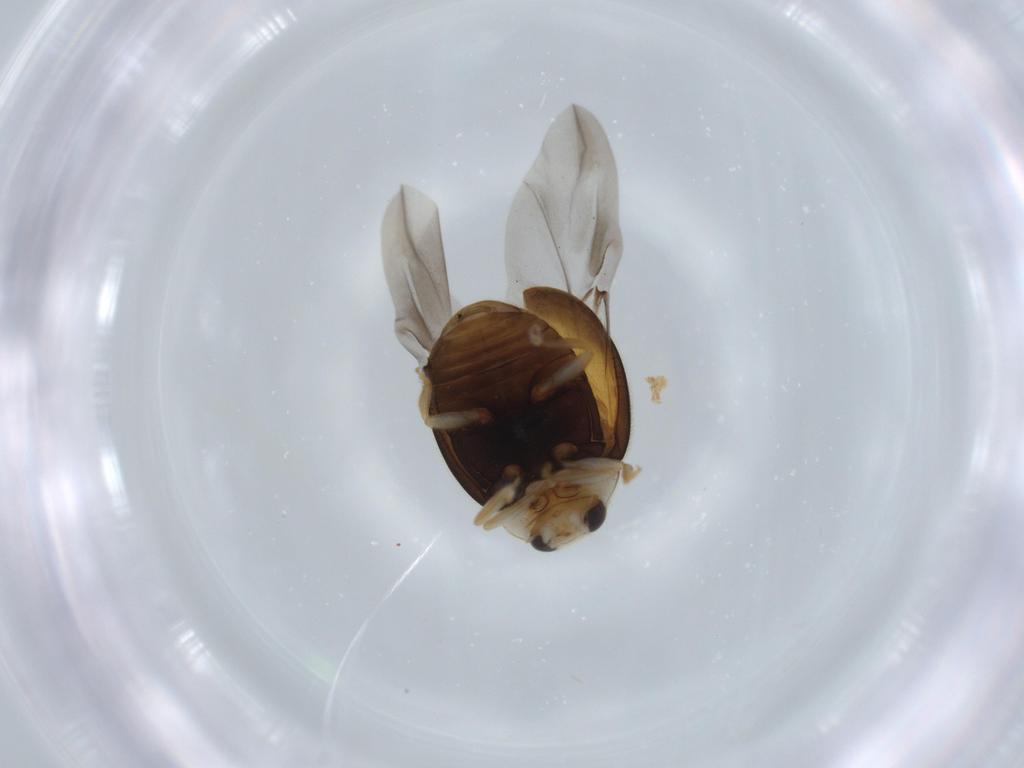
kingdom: Animalia
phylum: Arthropoda
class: Insecta
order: Coleoptera
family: Coccinellidae
